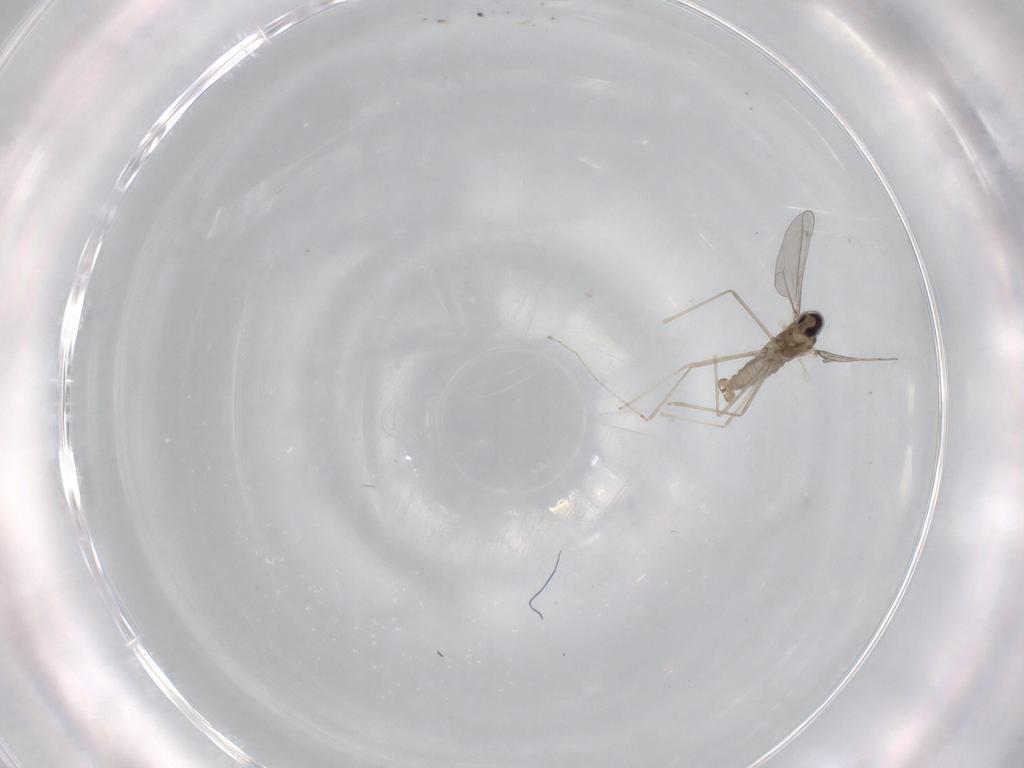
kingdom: Animalia
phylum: Arthropoda
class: Insecta
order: Diptera
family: Cecidomyiidae
